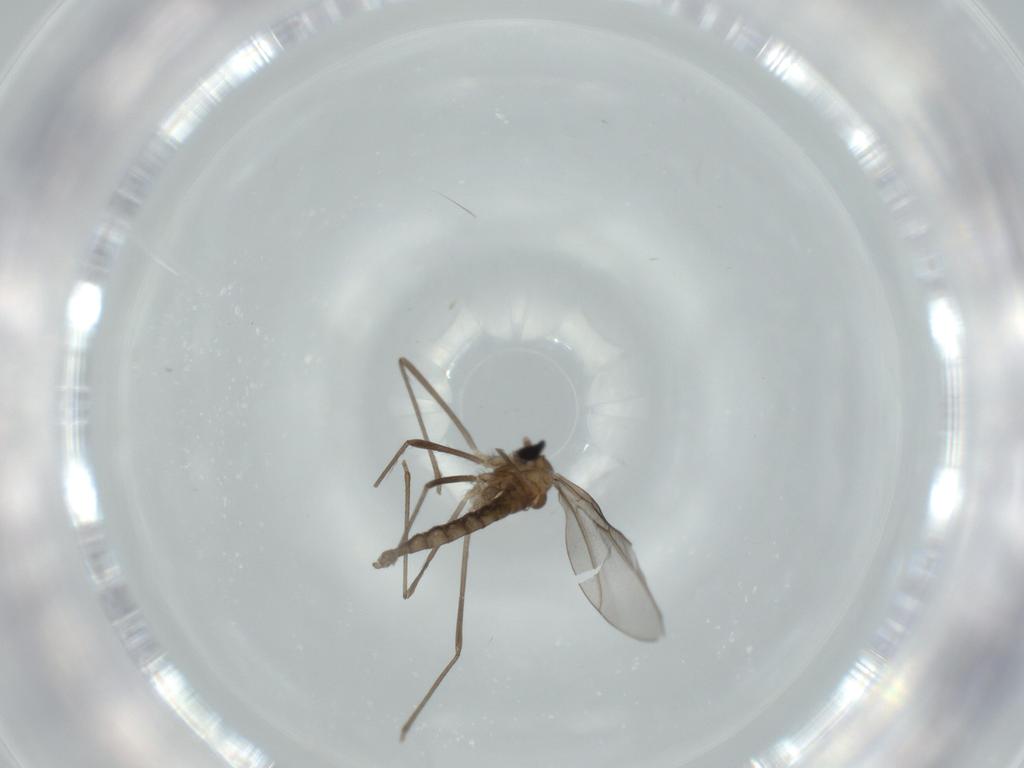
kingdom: Animalia
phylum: Arthropoda
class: Insecta
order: Diptera
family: Cecidomyiidae
